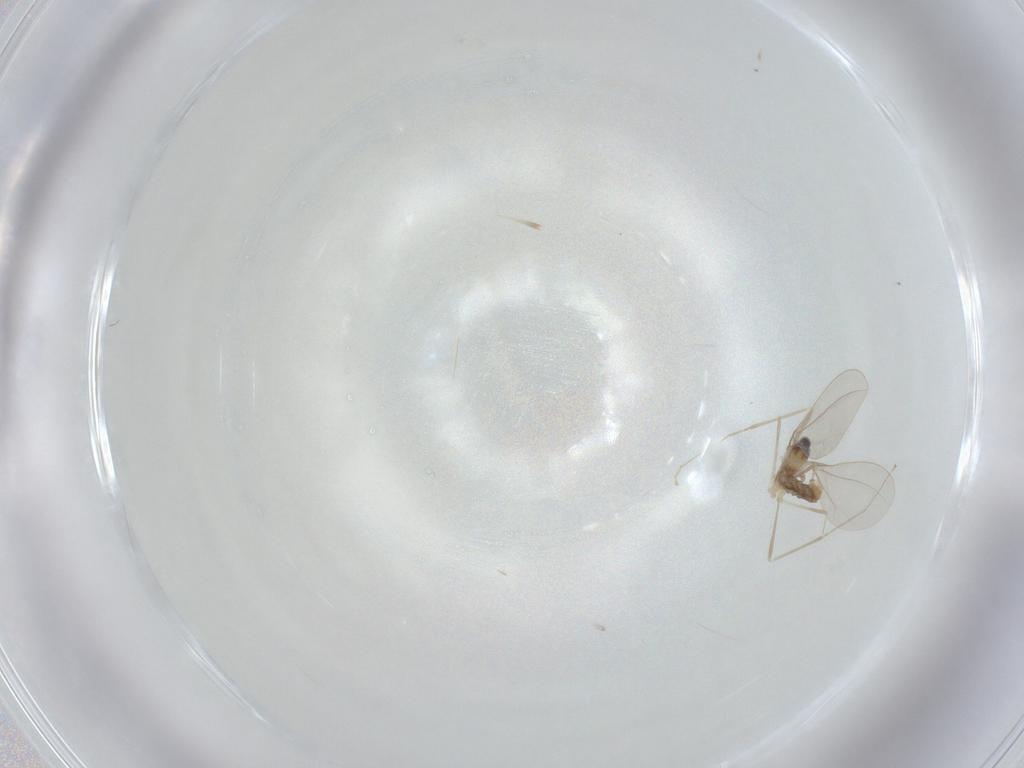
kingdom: Animalia
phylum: Arthropoda
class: Insecta
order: Diptera
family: Cecidomyiidae
